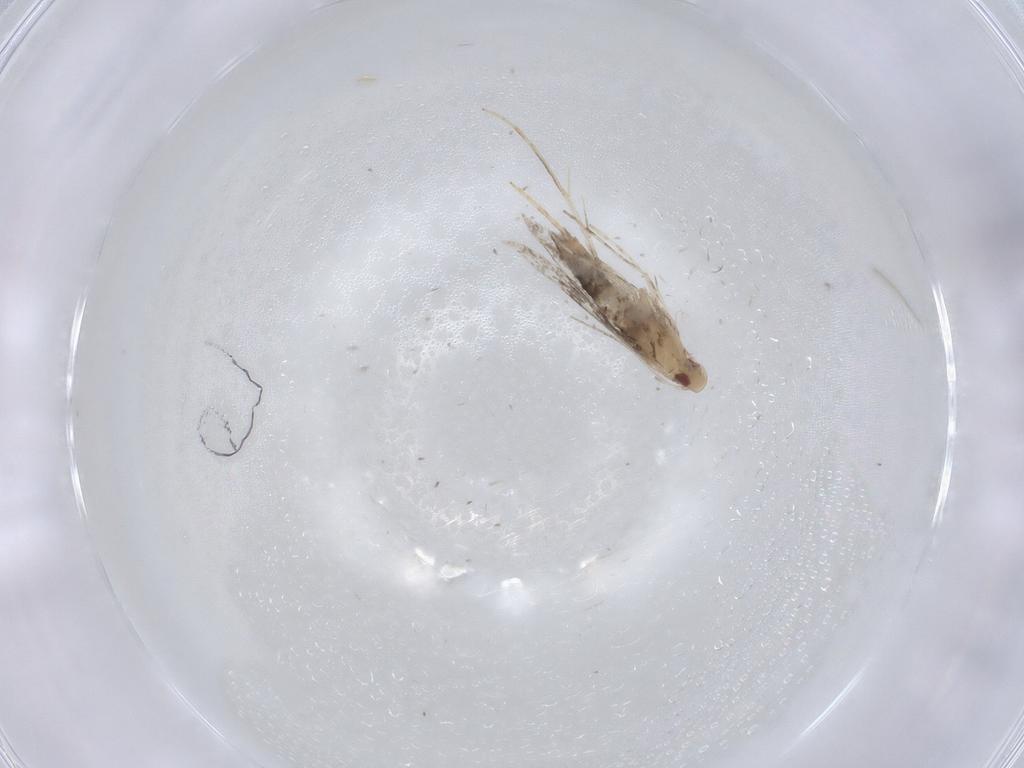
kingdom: Animalia
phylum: Arthropoda
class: Insecta
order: Lepidoptera
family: Gracillariidae
